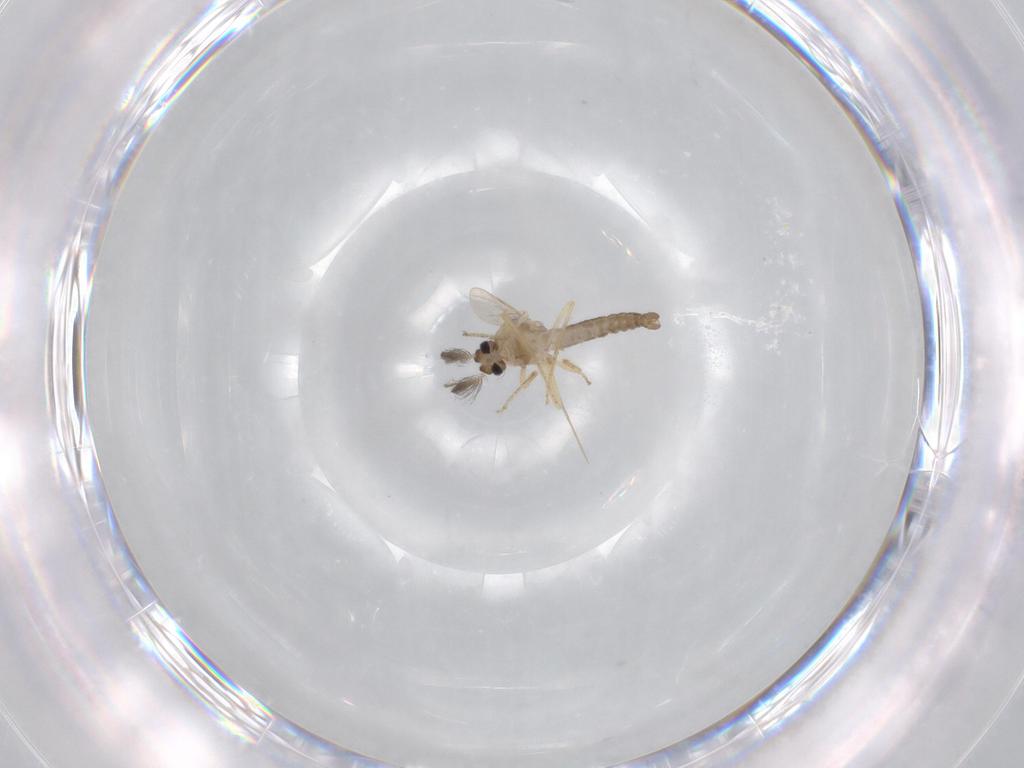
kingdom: Animalia
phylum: Arthropoda
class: Insecta
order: Diptera
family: Ceratopogonidae
